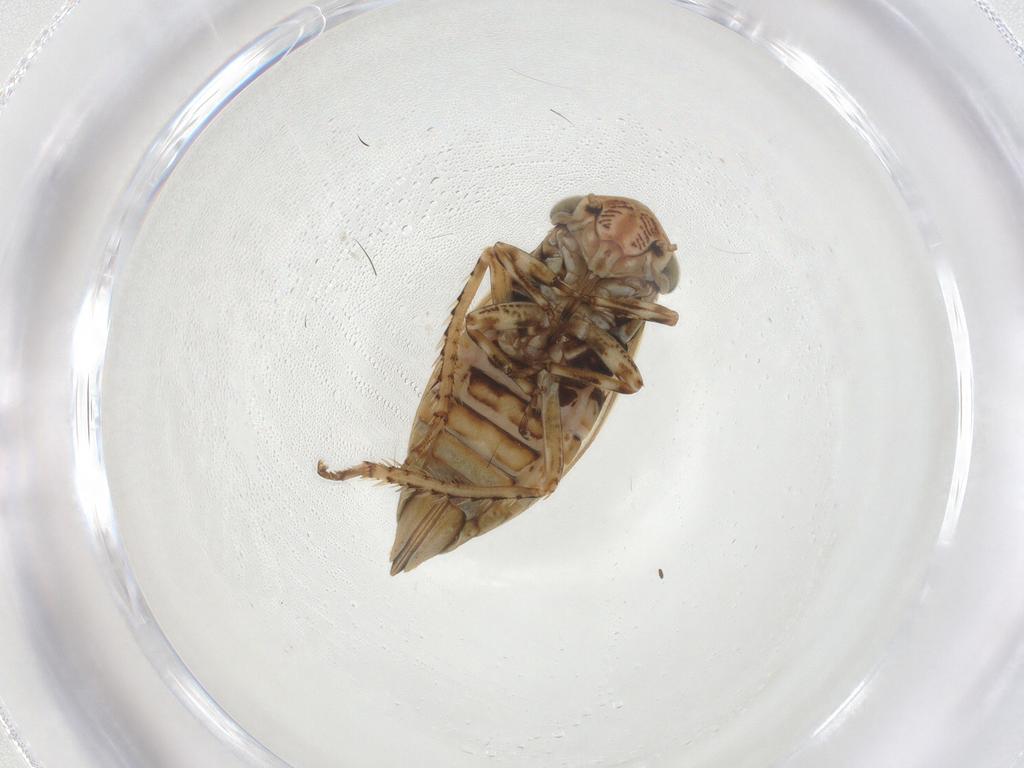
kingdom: Animalia
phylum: Arthropoda
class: Insecta
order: Hemiptera
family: Cicadellidae
